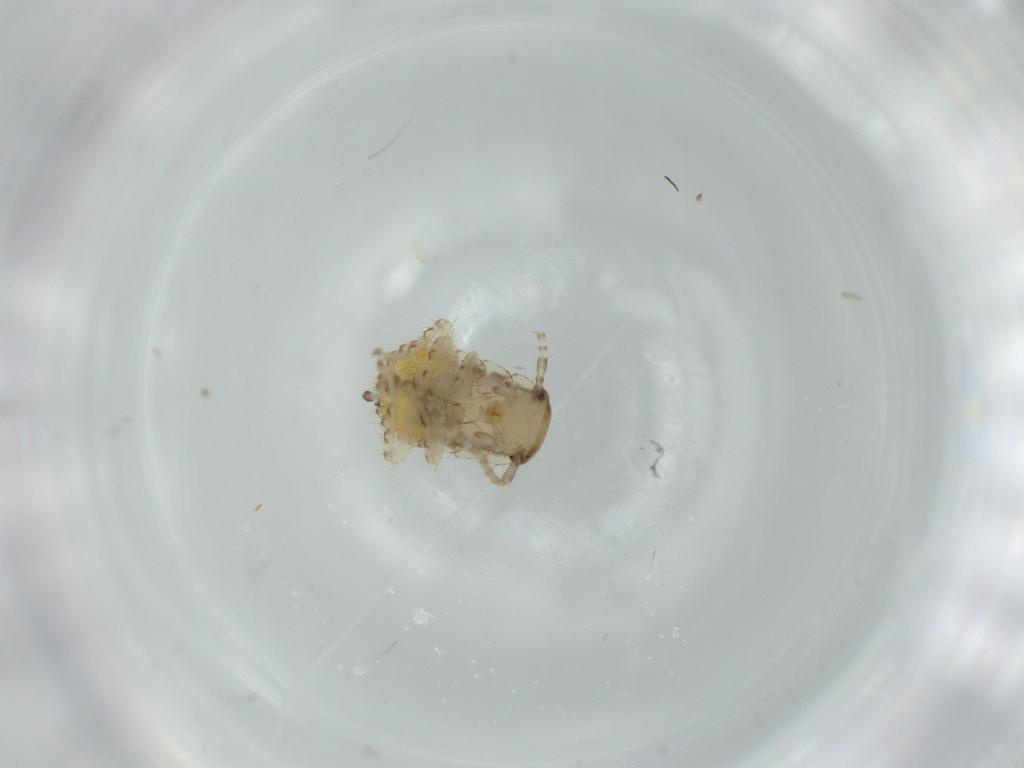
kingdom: Animalia
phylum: Arthropoda
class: Insecta
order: Blattodea
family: Ectobiidae
